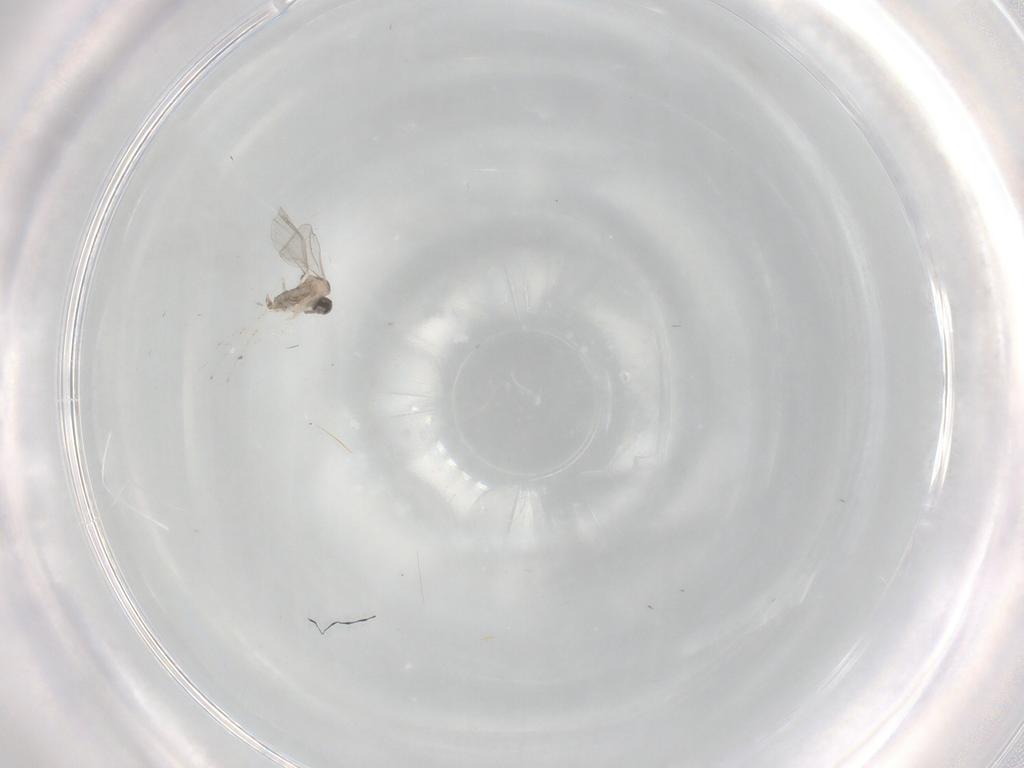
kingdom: Animalia
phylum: Arthropoda
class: Insecta
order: Diptera
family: Cecidomyiidae
